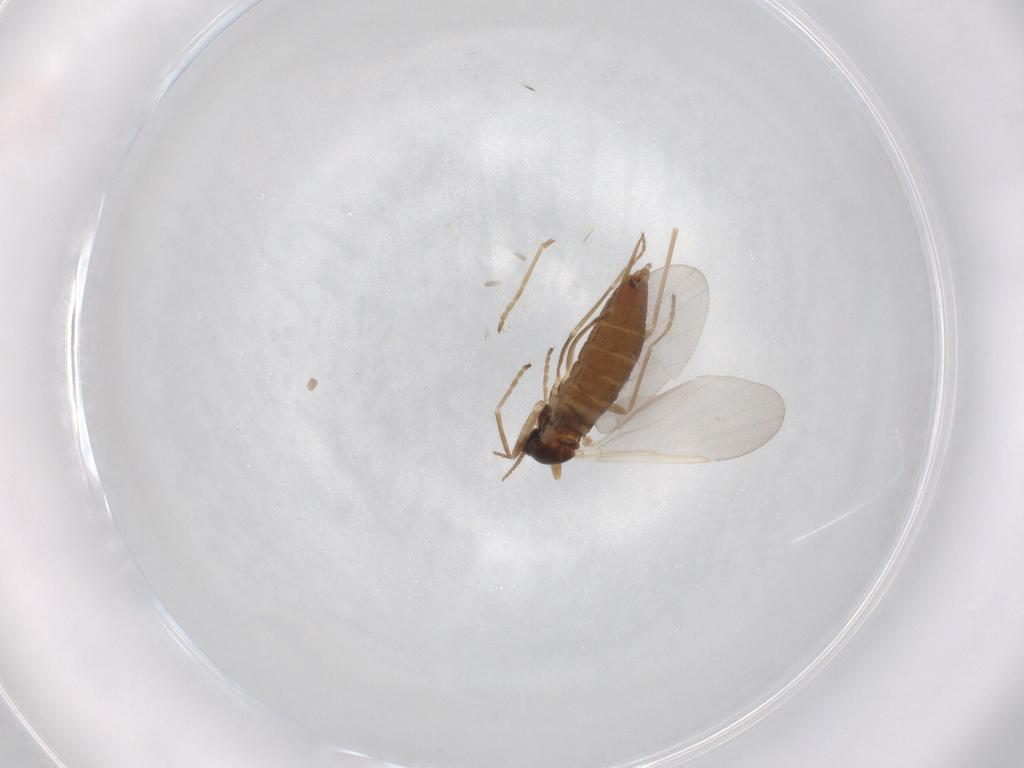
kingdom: Animalia
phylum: Arthropoda
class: Insecta
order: Diptera
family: Cecidomyiidae
